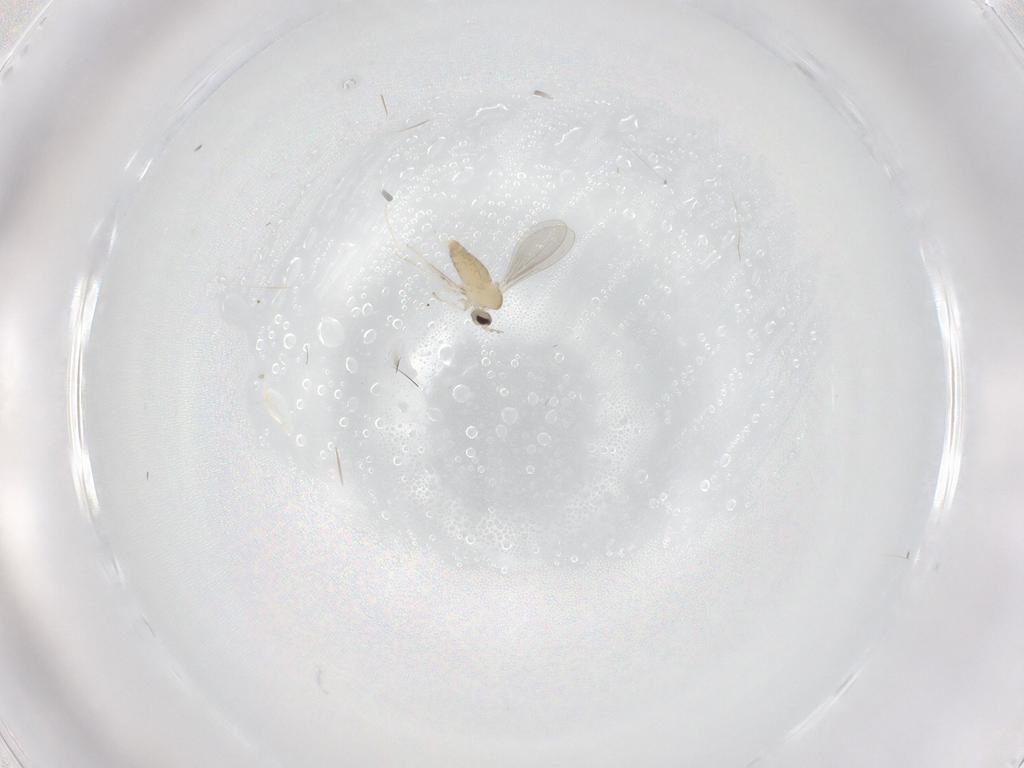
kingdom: Animalia
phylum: Arthropoda
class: Insecta
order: Diptera
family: Cecidomyiidae
